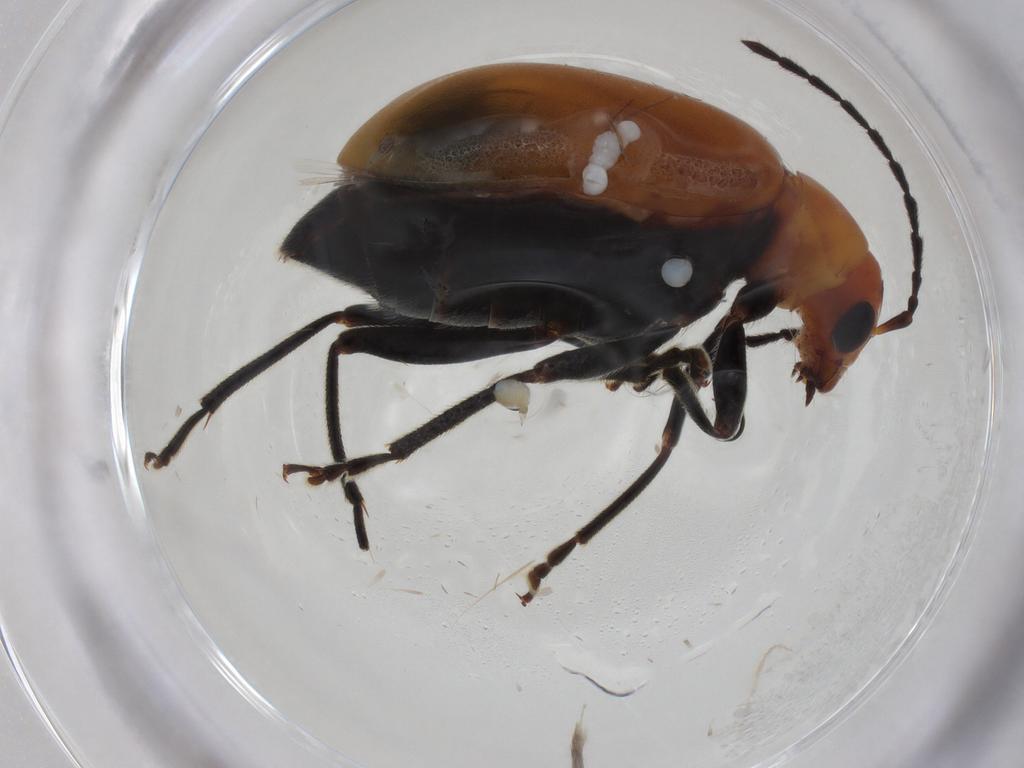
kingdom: Animalia
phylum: Arthropoda
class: Insecta
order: Coleoptera
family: Chrysomelidae
